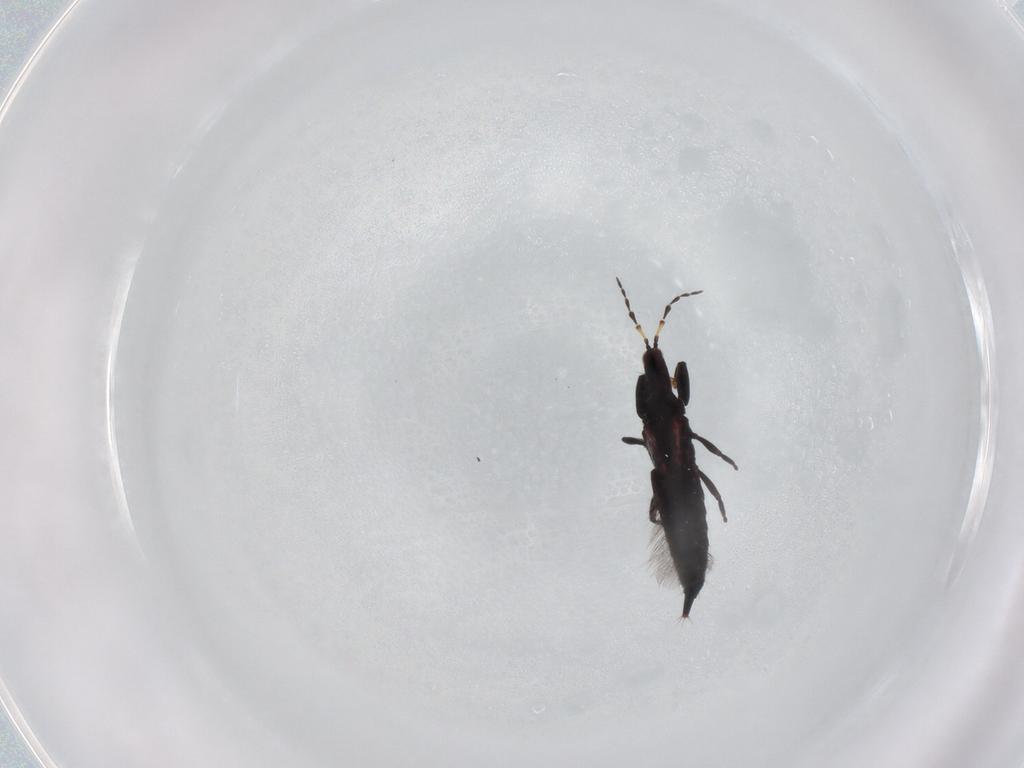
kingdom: Animalia
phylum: Arthropoda
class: Insecta
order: Thysanoptera
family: Phlaeothripidae
